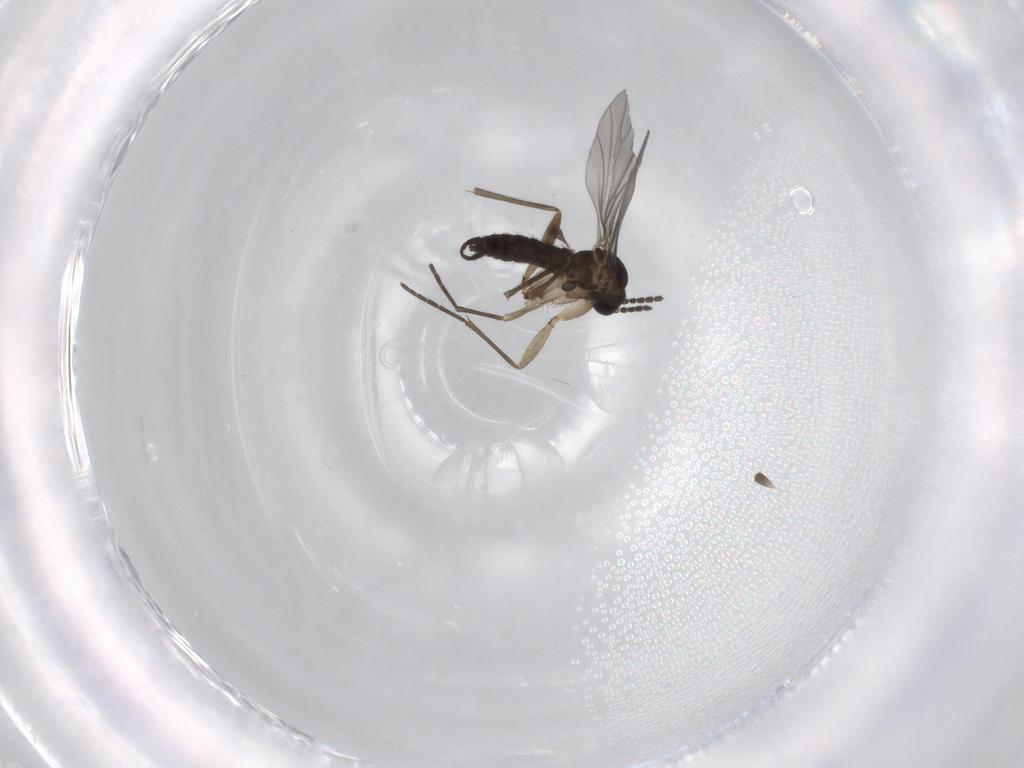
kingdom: Animalia
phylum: Arthropoda
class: Insecta
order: Diptera
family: Sciaridae
